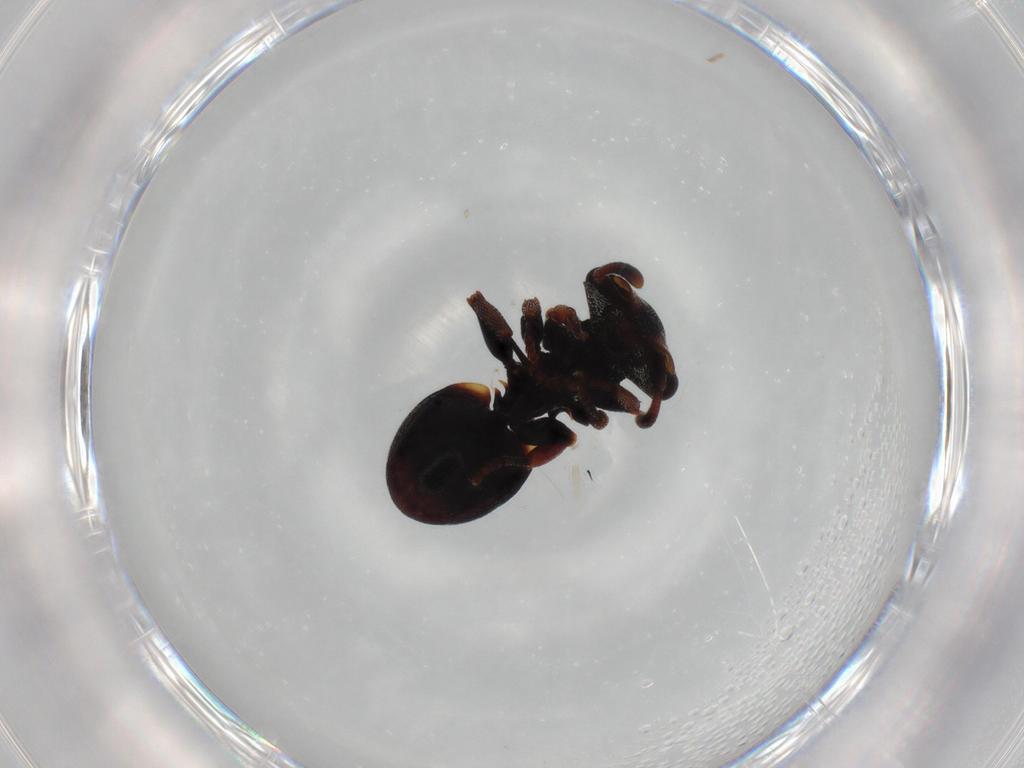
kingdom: Animalia
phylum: Arthropoda
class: Insecta
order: Hymenoptera
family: Formicidae
